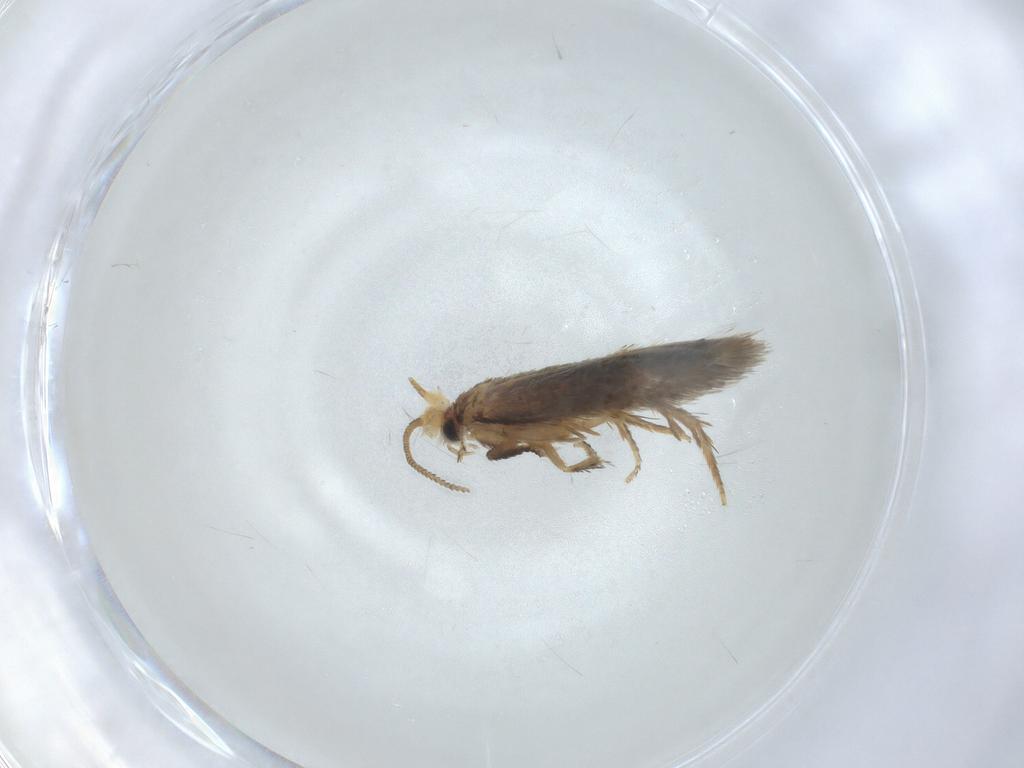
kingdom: Animalia
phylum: Arthropoda
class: Insecta
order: Lepidoptera
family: Nepticulidae
